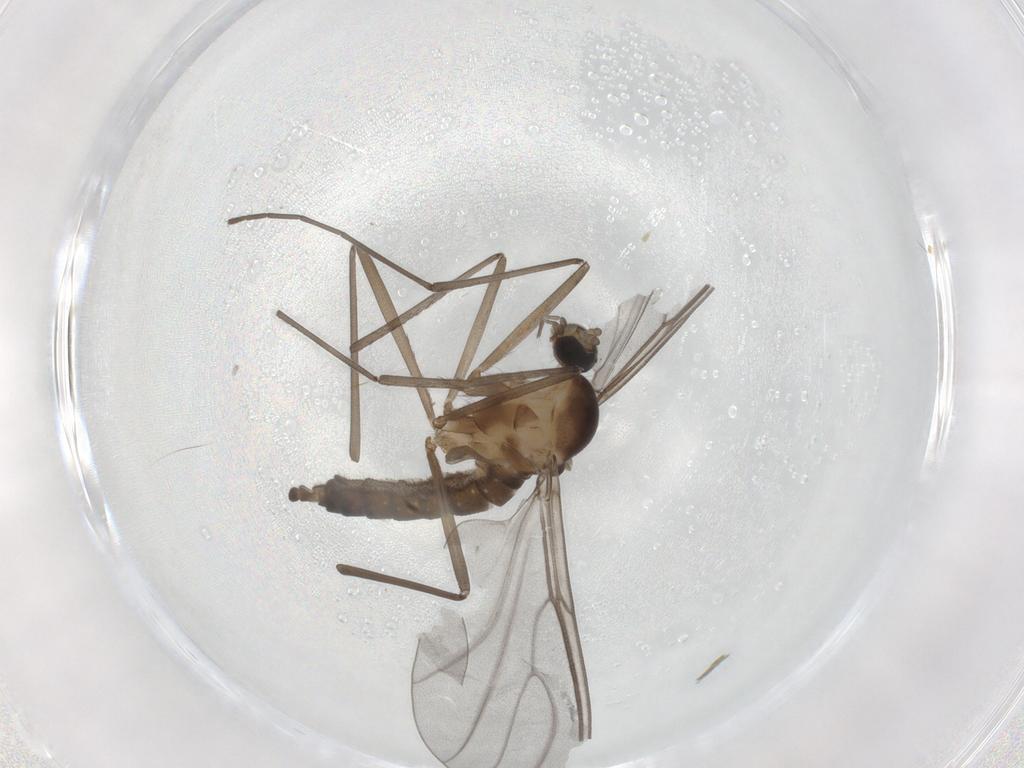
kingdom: Animalia
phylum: Arthropoda
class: Insecta
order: Diptera
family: Cecidomyiidae
